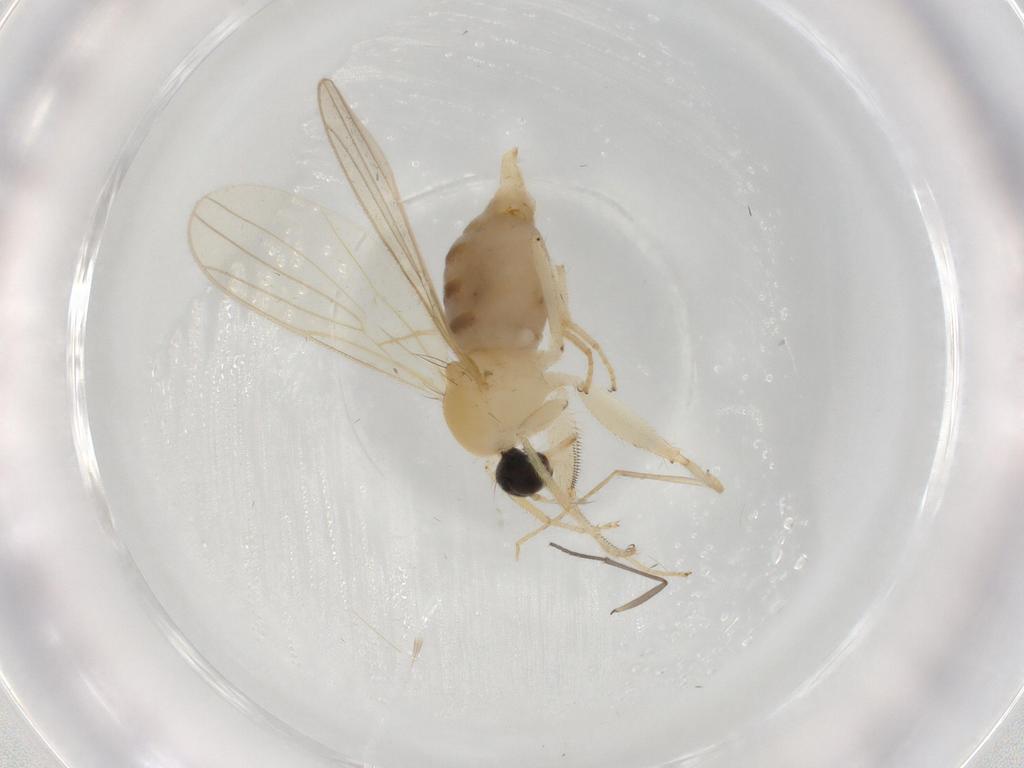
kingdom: Animalia
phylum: Arthropoda
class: Insecta
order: Diptera
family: Hybotidae
